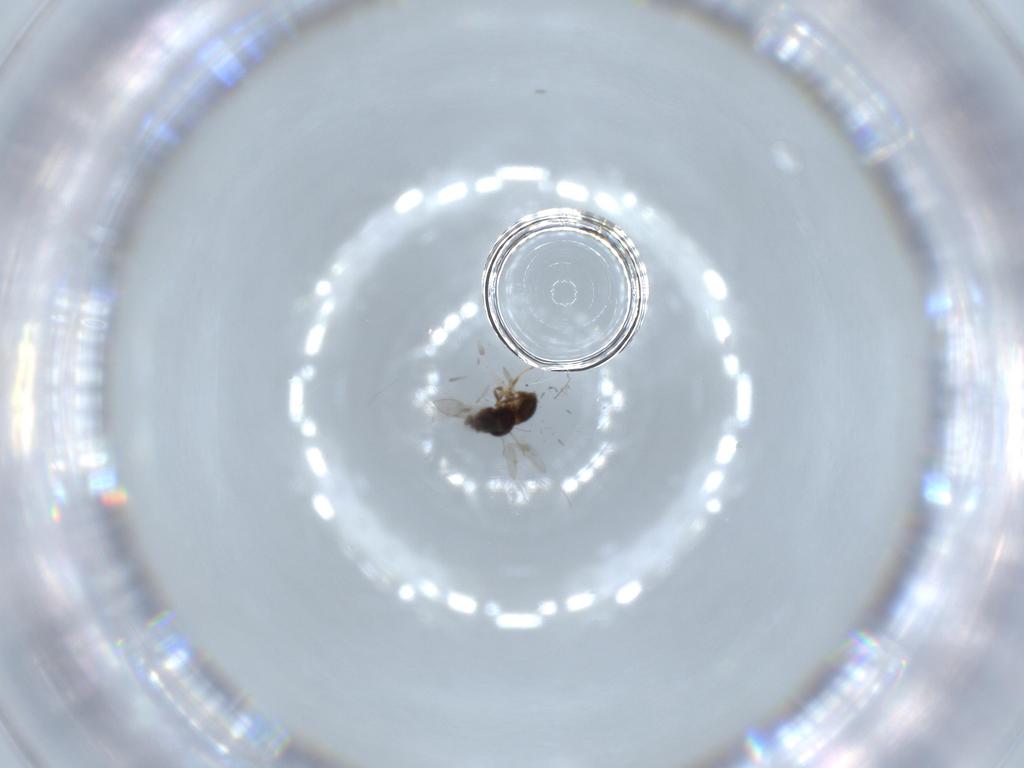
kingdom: Animalia
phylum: Arthropoda
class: Insecta
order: Hymenoptera
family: Scelionidae
